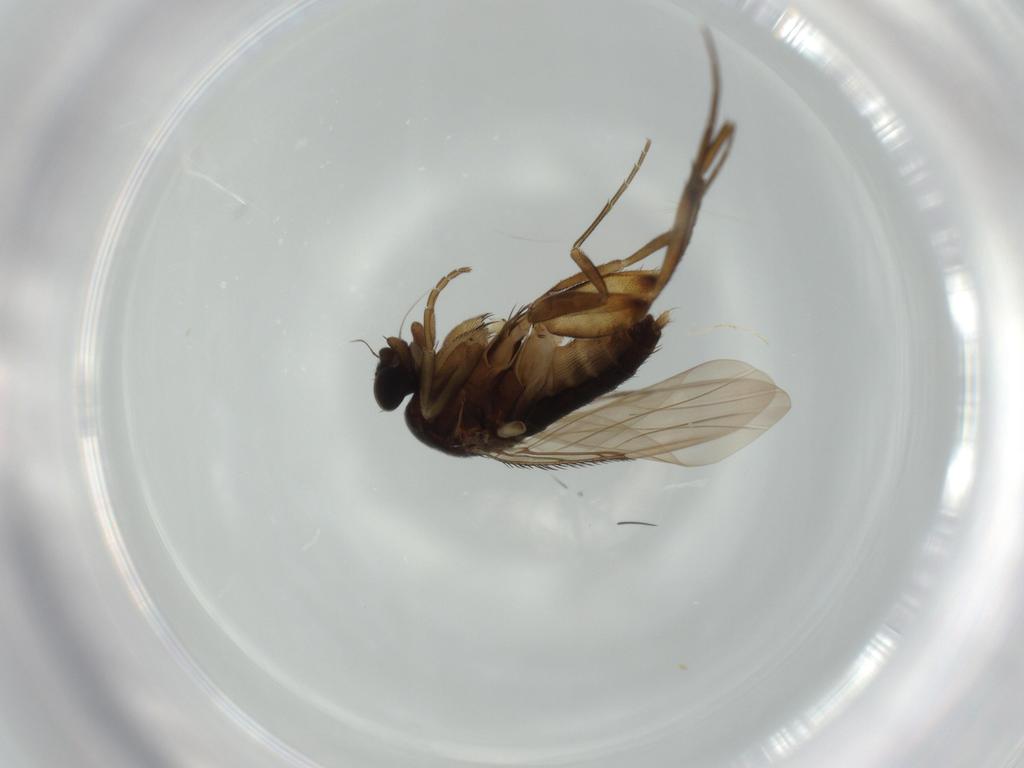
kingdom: Animalia
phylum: Arthropoda
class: Insecta
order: Diptera
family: Phoridae
